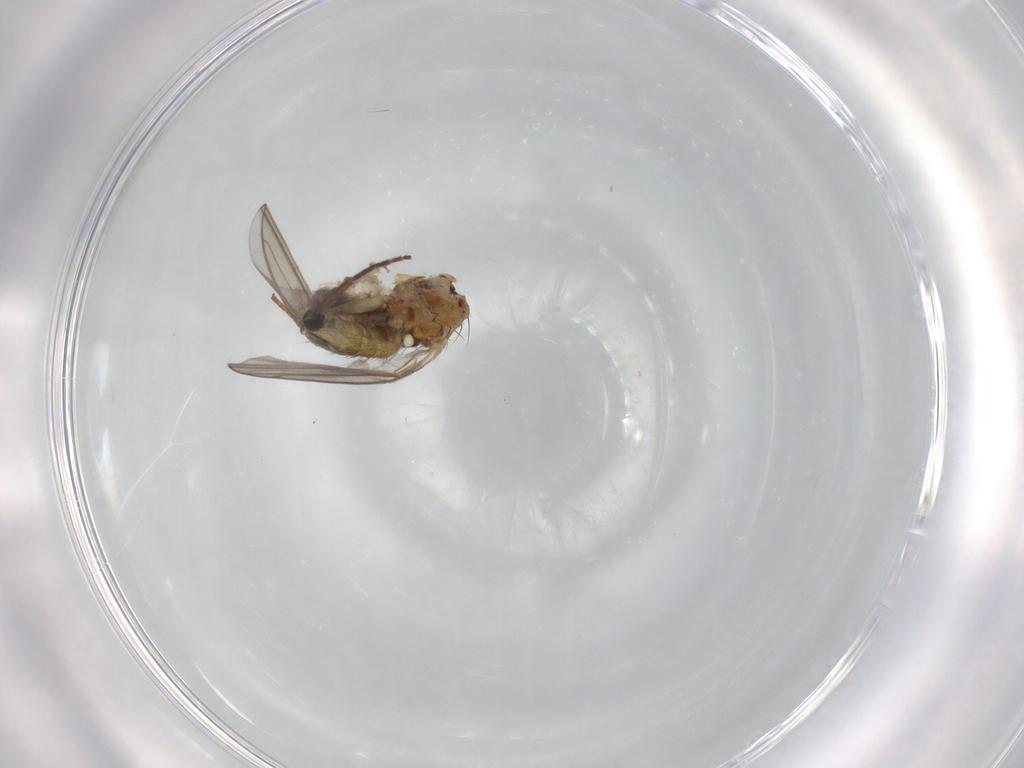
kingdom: Animalia
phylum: Arthropoda
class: Insecta
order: Diptera
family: Agromyzidae
